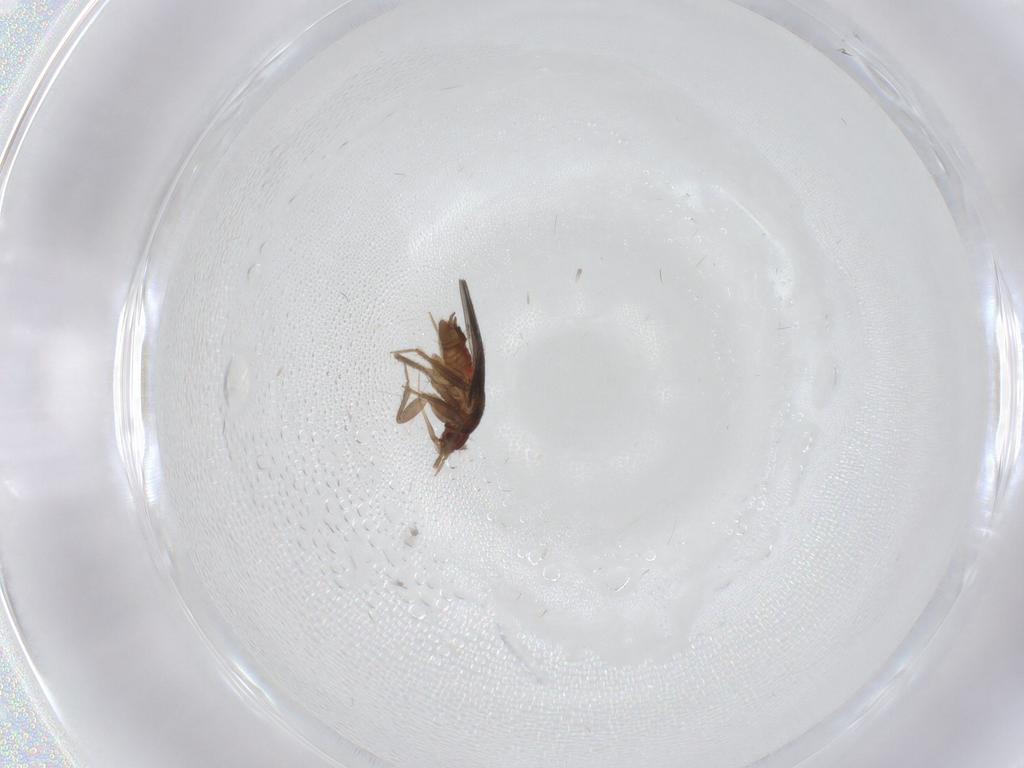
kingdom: Animalia
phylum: Arthropoda
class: Insecta
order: Hemiptera
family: Ceratocombidae
